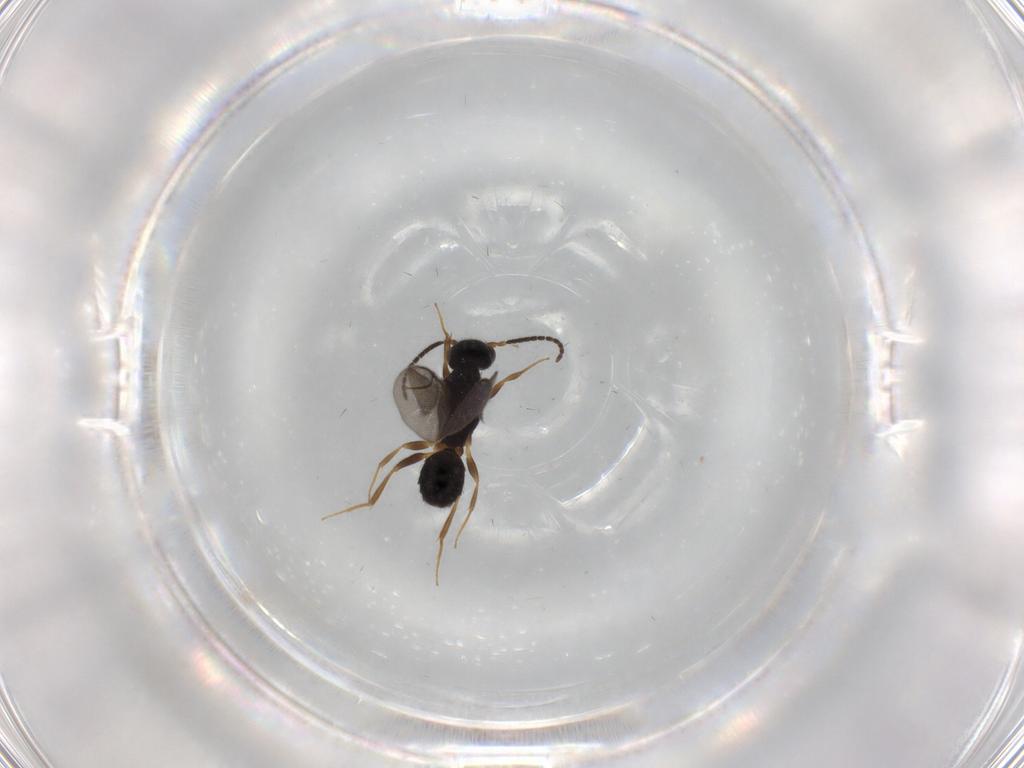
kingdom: Animalia
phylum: Arthropoda
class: Insecta
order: Hymenoptera
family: Bethylidae
